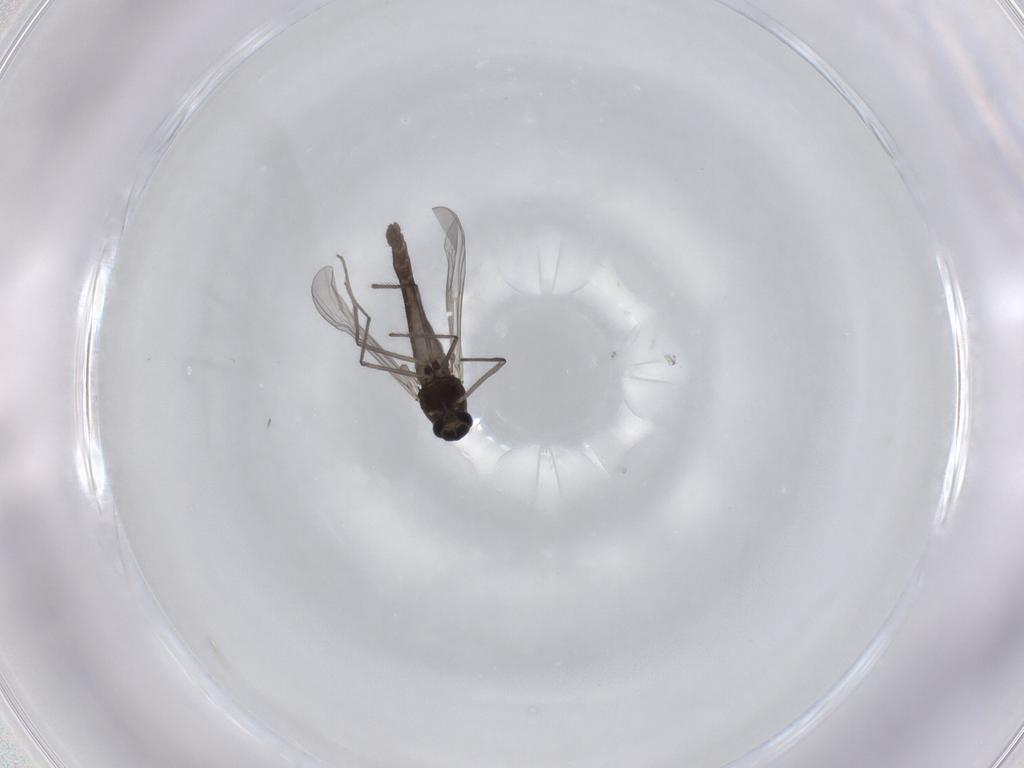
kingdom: Animalia
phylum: Arthropoda
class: Insecta
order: Diptera
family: Chironomidae
